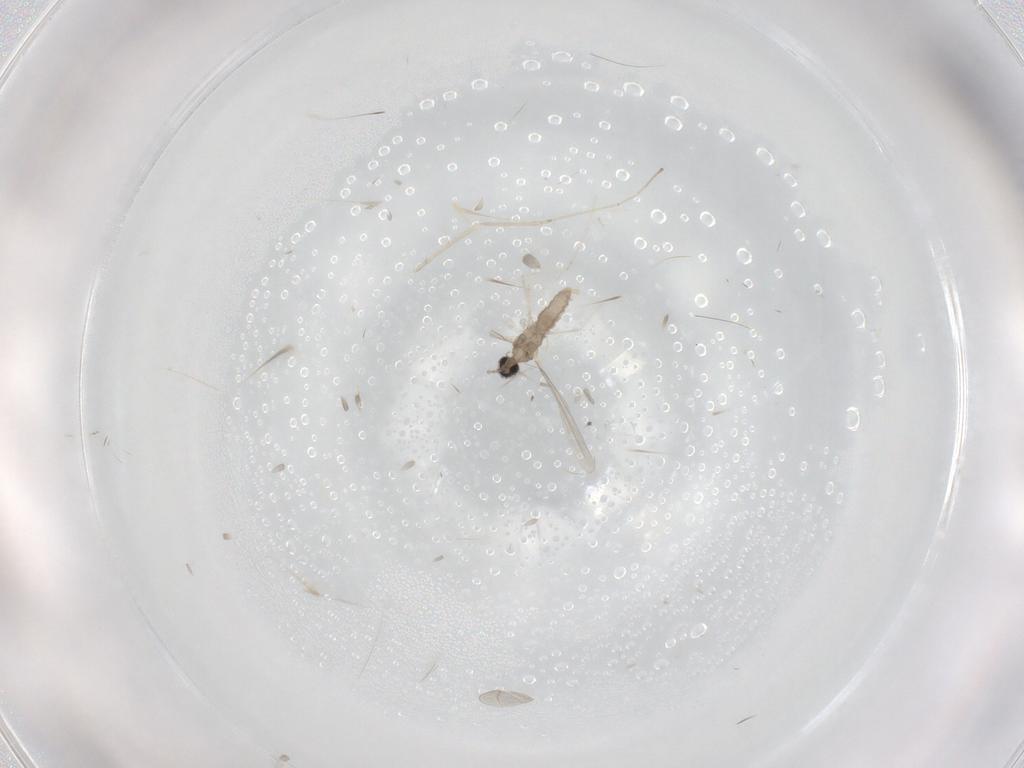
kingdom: Animalia
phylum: Arthropoda
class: Insecta
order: Diptera
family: Cecidomyiidae
